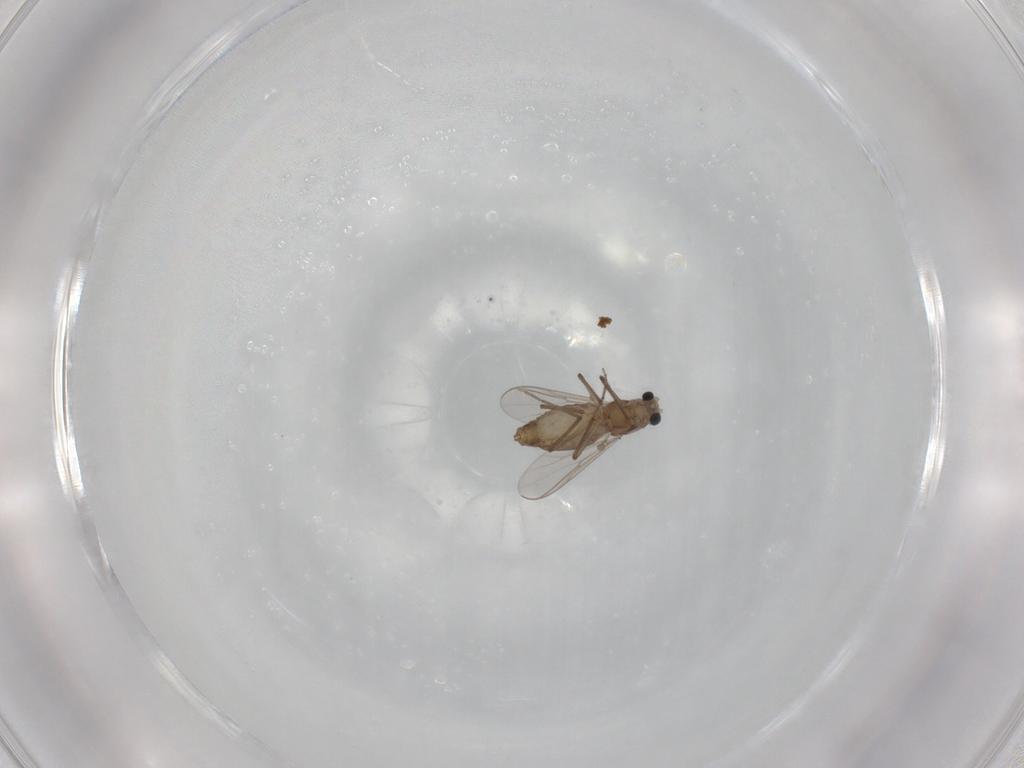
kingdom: Animalia
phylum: Arthropoda
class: Insecta
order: Diptera
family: Chironomidae
